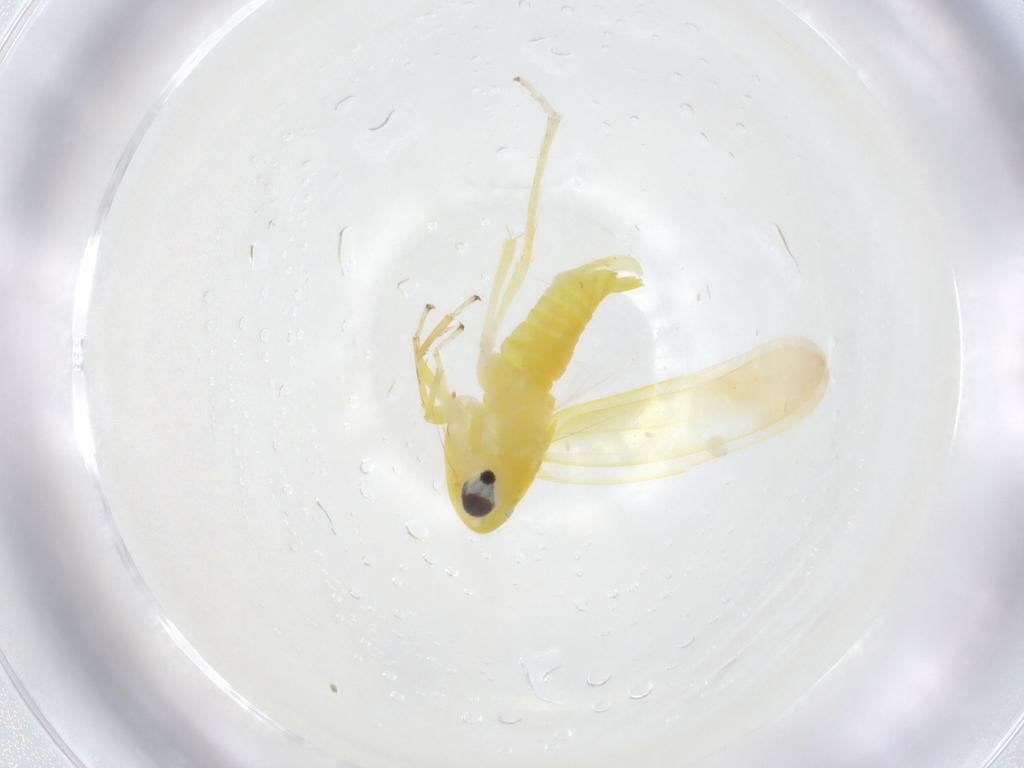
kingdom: Animalia
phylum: Arthropoda
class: Insecta
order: Hemiptera
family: Cicadellidae
